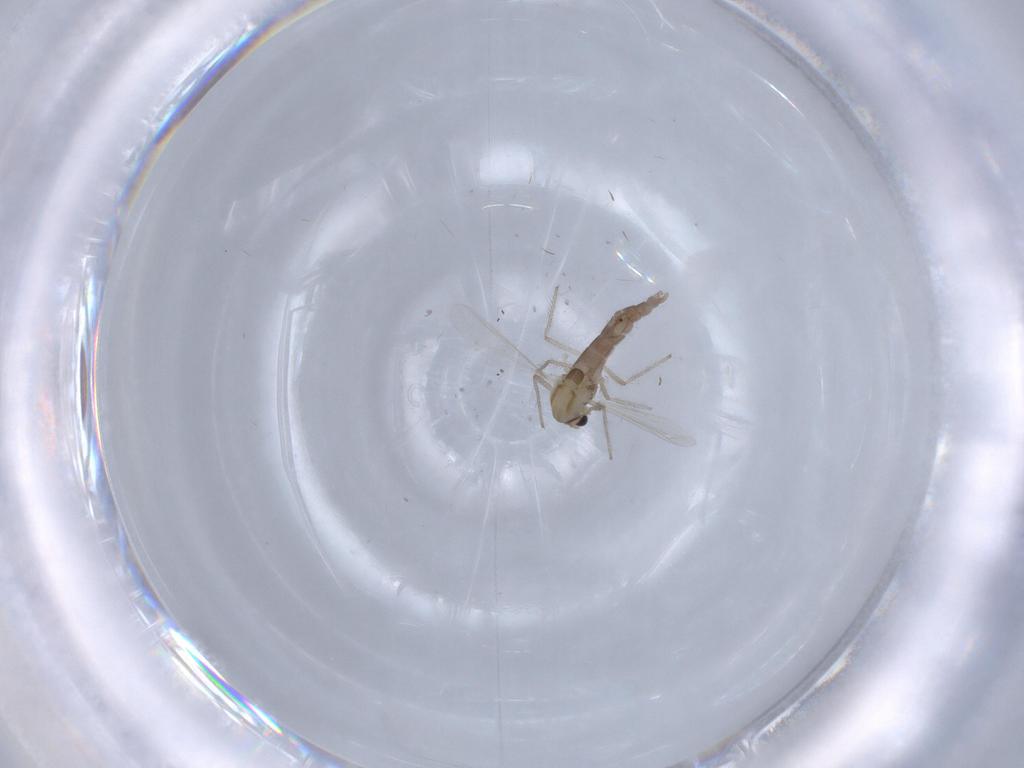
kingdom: Animalia
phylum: Arthropoda
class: Insecta
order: Diptera
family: Chironomidae
